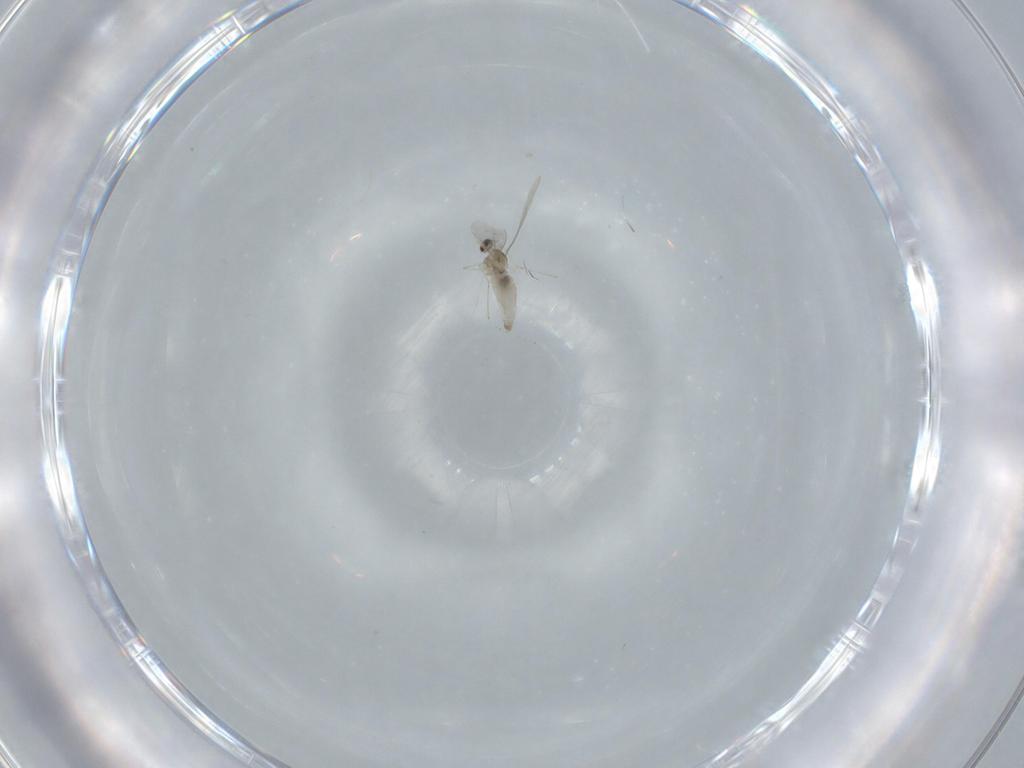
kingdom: Animalia
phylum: Arthropoda
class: Insecta
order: Diptera
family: Cecidomyiidae
